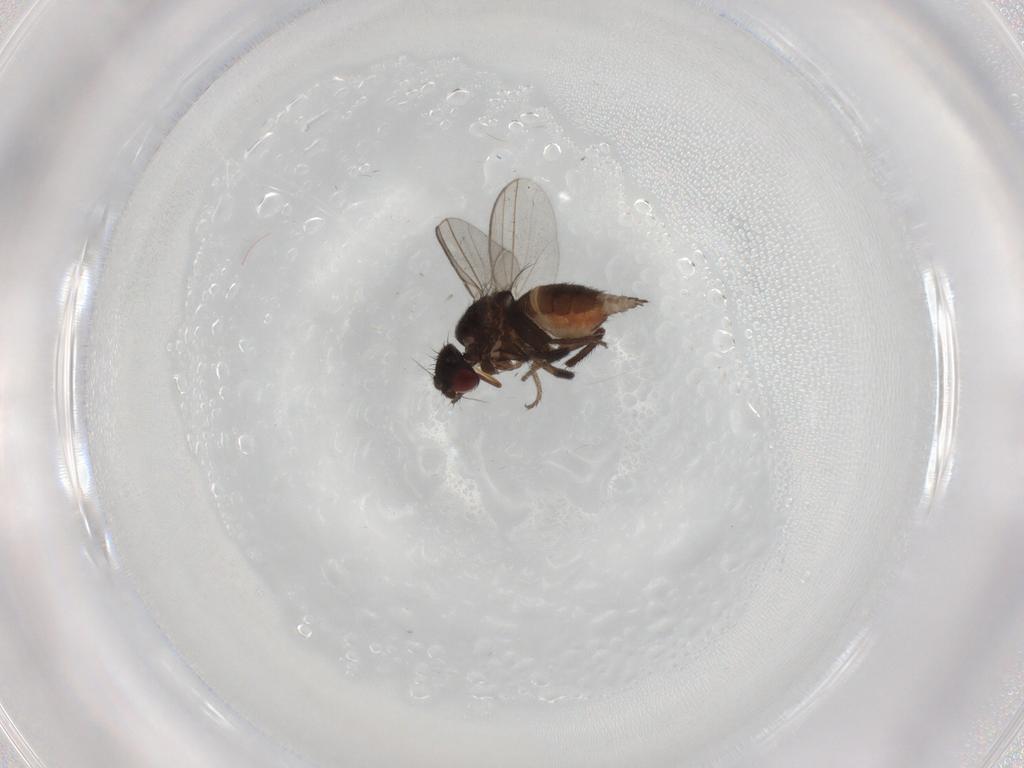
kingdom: Animalia
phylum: Arthropoda
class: Insecta
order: Diptera
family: Milichiidae
